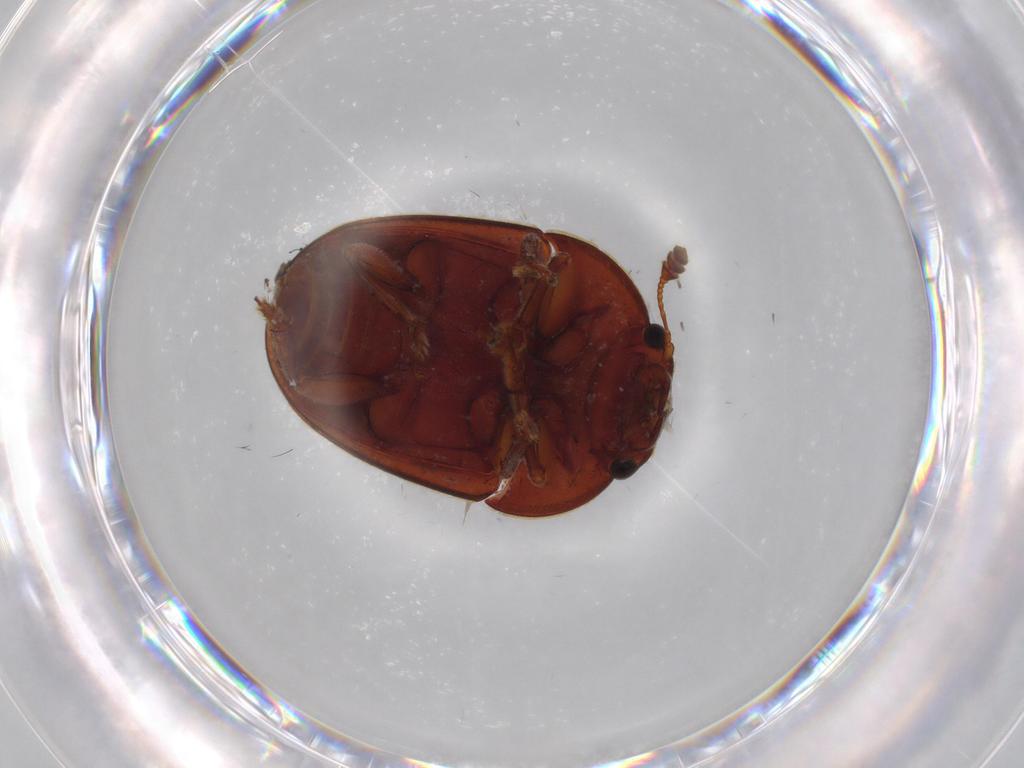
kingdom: Animalia
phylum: Arthropoda
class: Insecta
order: Coleoptera
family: Nitidulidae
